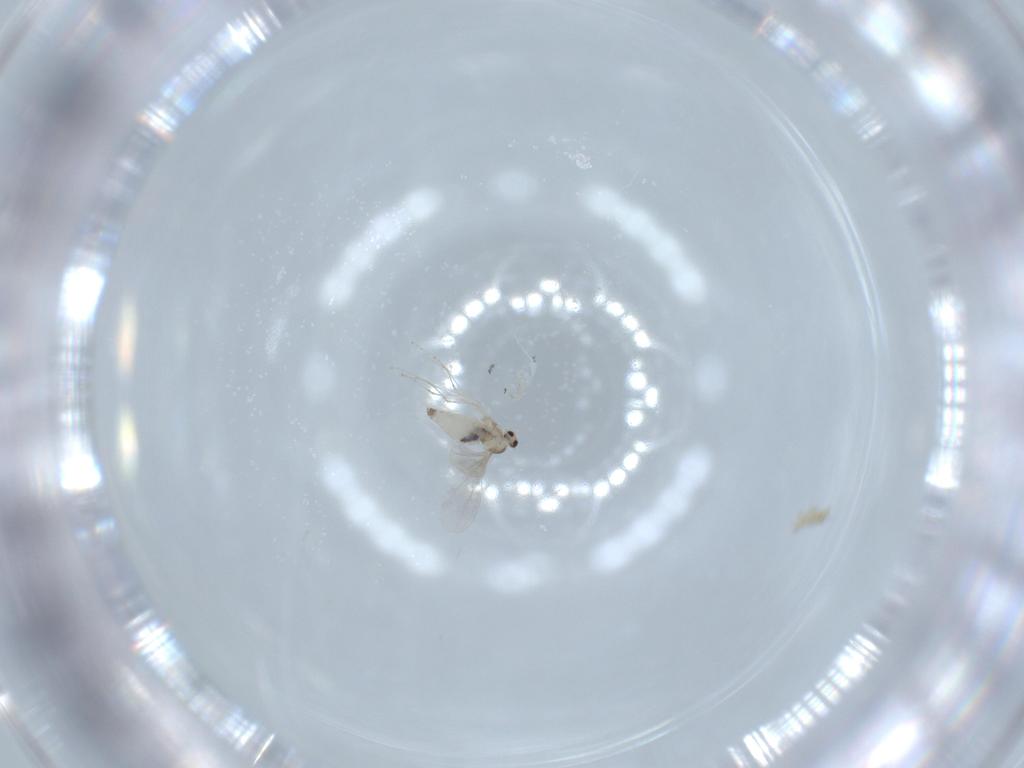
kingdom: Animalia
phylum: Arthropoda
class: Insecta
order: Diptera
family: Cecidomyiidae
